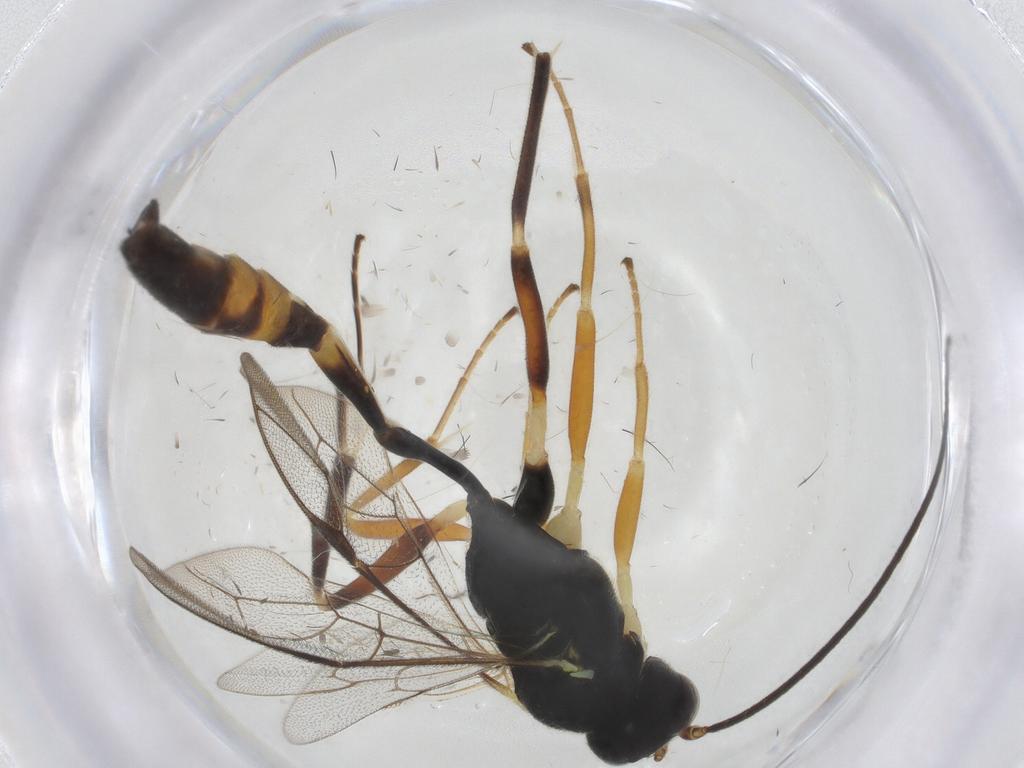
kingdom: Animalia
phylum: Arthropoda
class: Insecta
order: Hymenoptera
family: Ichneumonidae
